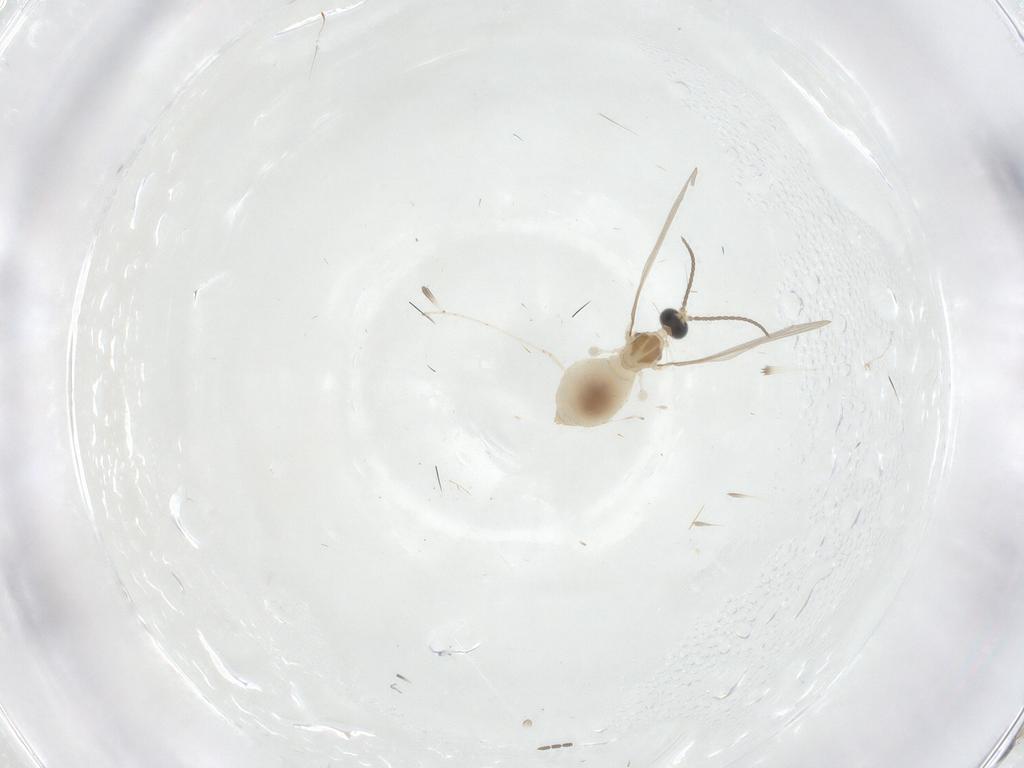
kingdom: Animalia
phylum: Arthropoda
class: Insecta
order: Diptera
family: Cecidomyiidae
